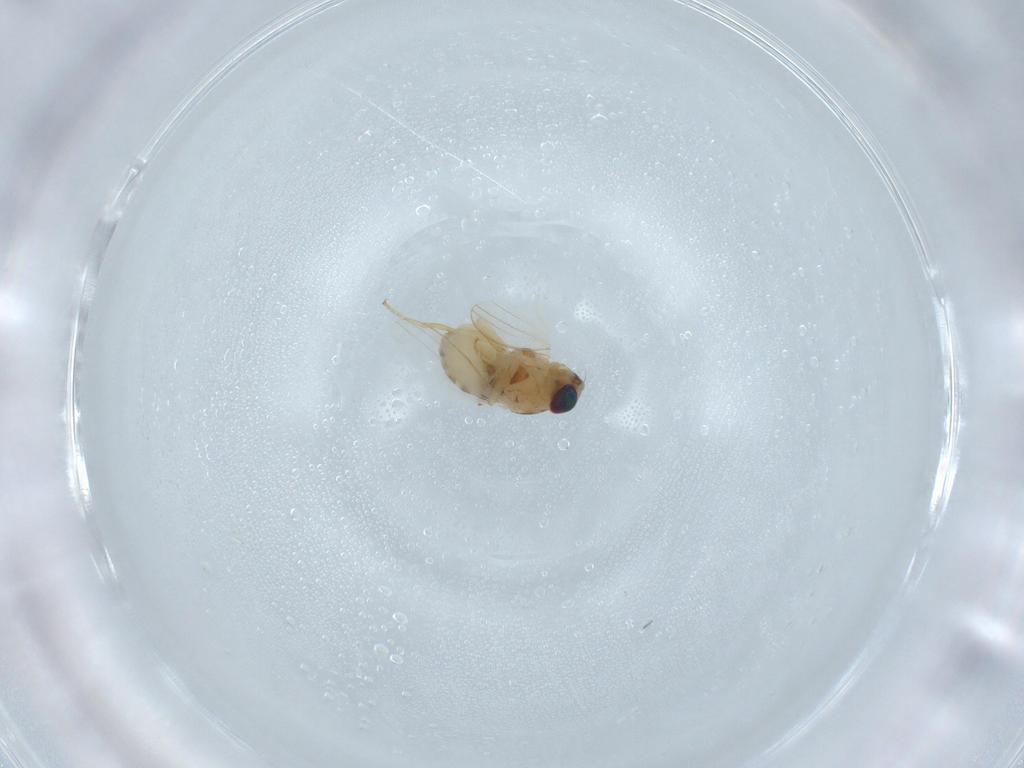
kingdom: Animalia
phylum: Arthropoda
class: Insecta
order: Diptera
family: Chyromyidae
